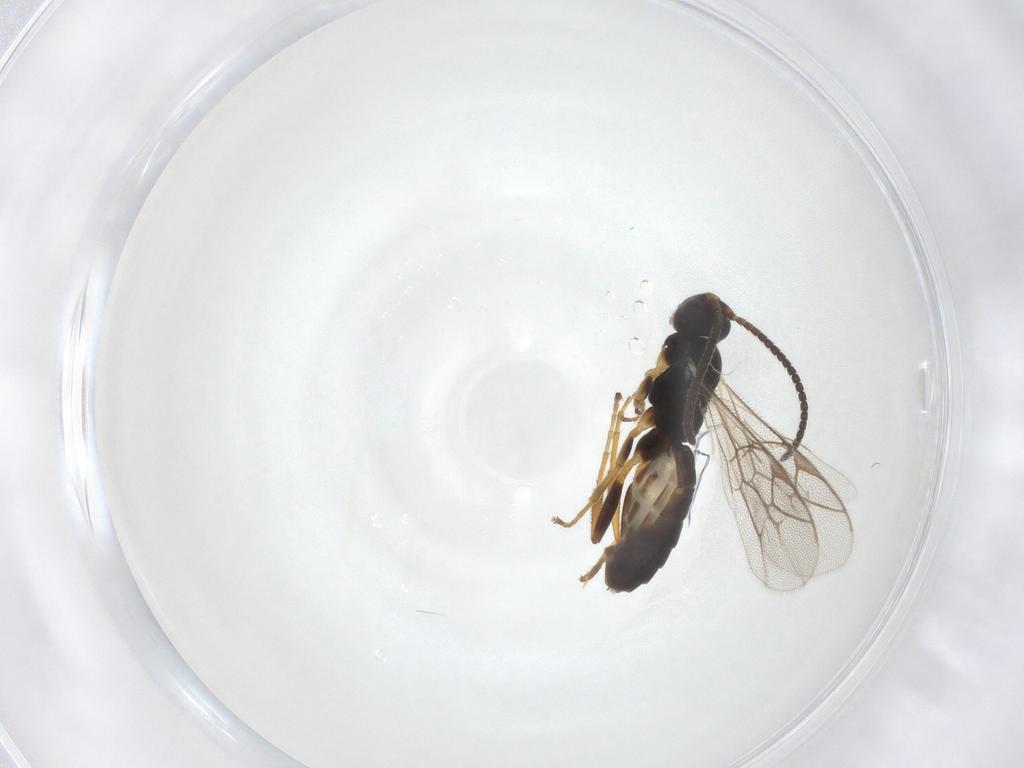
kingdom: Animalia
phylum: Arthropoda
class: Insecta
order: Hymenoptera
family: Ichneumonidae
